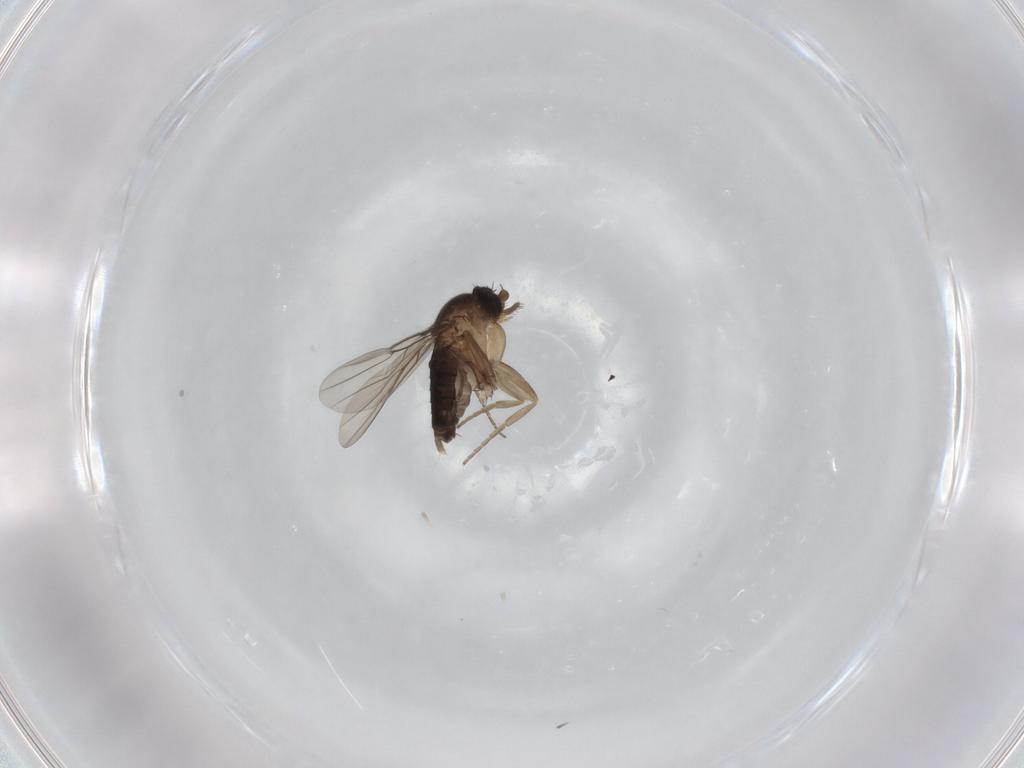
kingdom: Animalia
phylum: Arthropoda
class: Insecta
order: Diptera
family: Phoridae
